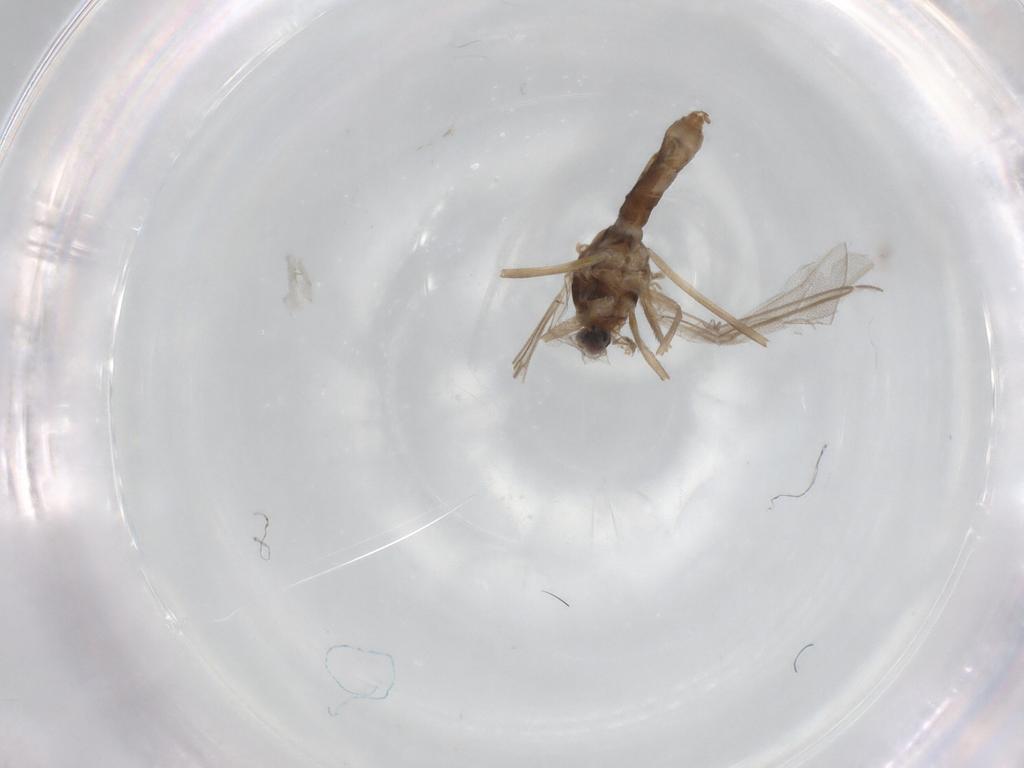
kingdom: Animalia
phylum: Arthropoda
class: Insecta
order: Diptera
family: Cecidomyiidae
